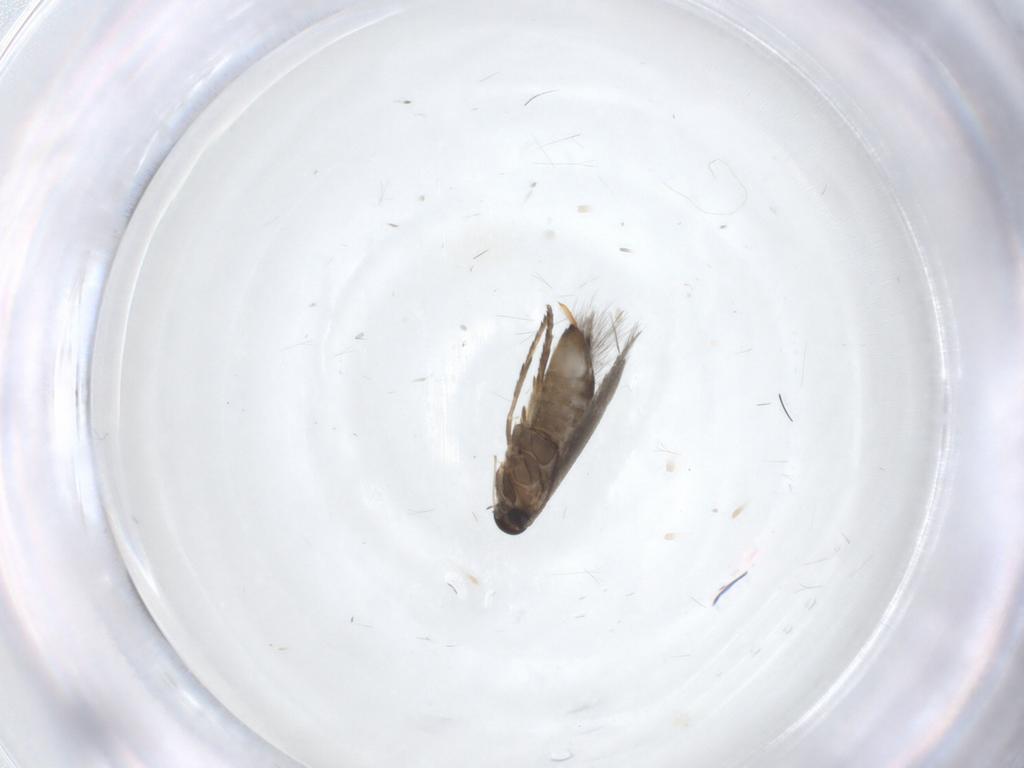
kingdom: Animalia
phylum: Arthropoda
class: Insecta
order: Lepidoptera
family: Heliozelidae
